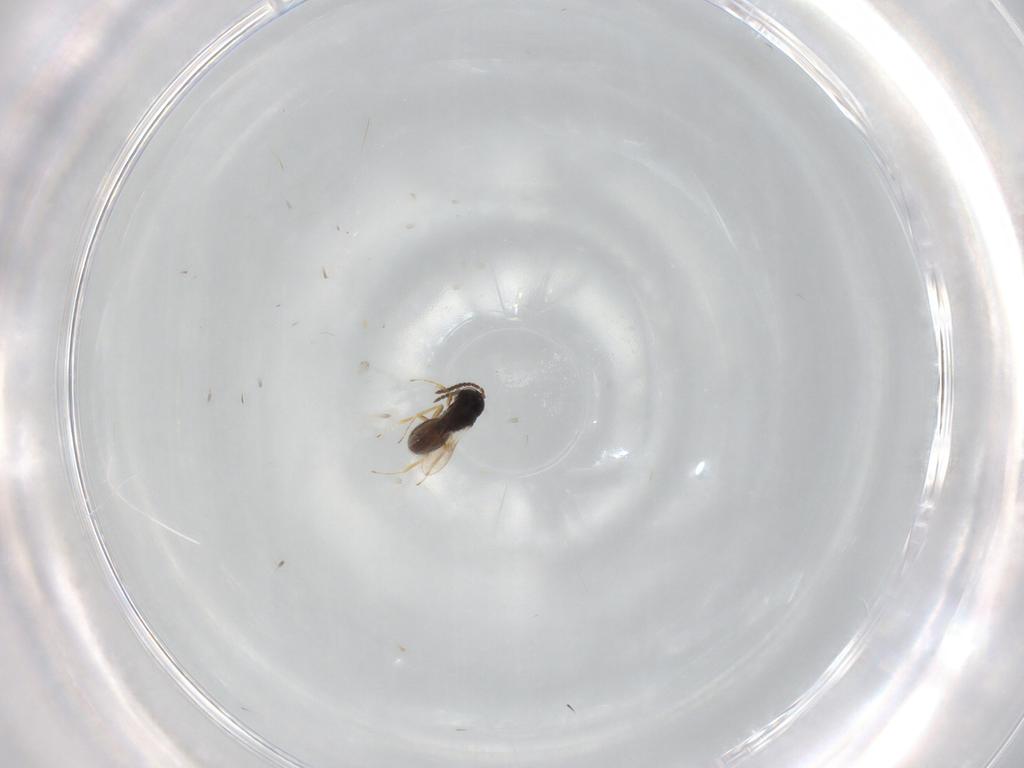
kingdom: Animalia
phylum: Arthropoda
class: Insecta
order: Hymenoptera
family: Scelionidae
